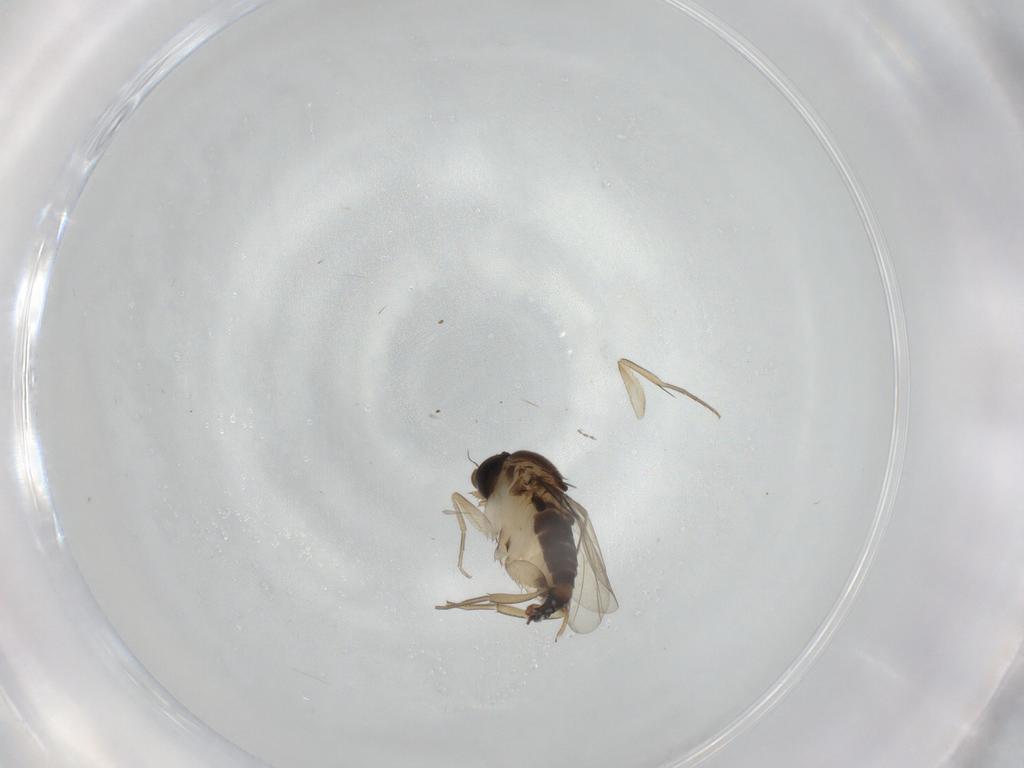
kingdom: Animalia
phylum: Arthropoda
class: Insecta
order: Diptera
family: Phoridae
